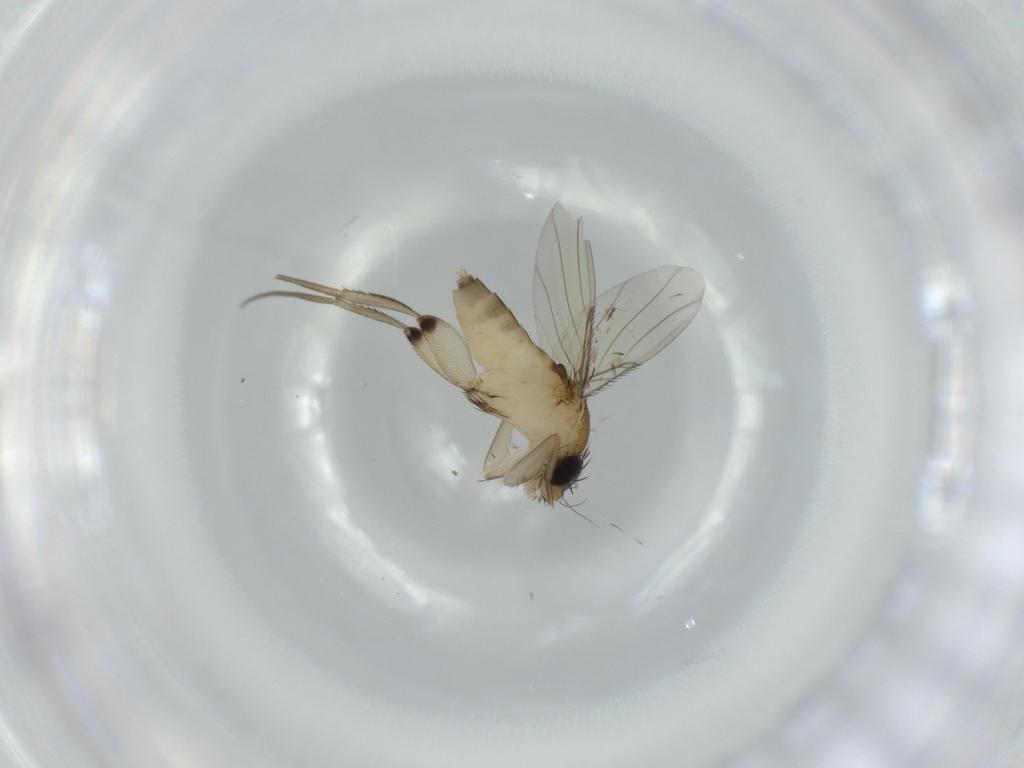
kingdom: Animalia
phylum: Arthropoda
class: Insecta
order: Diptera
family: Phoridae
